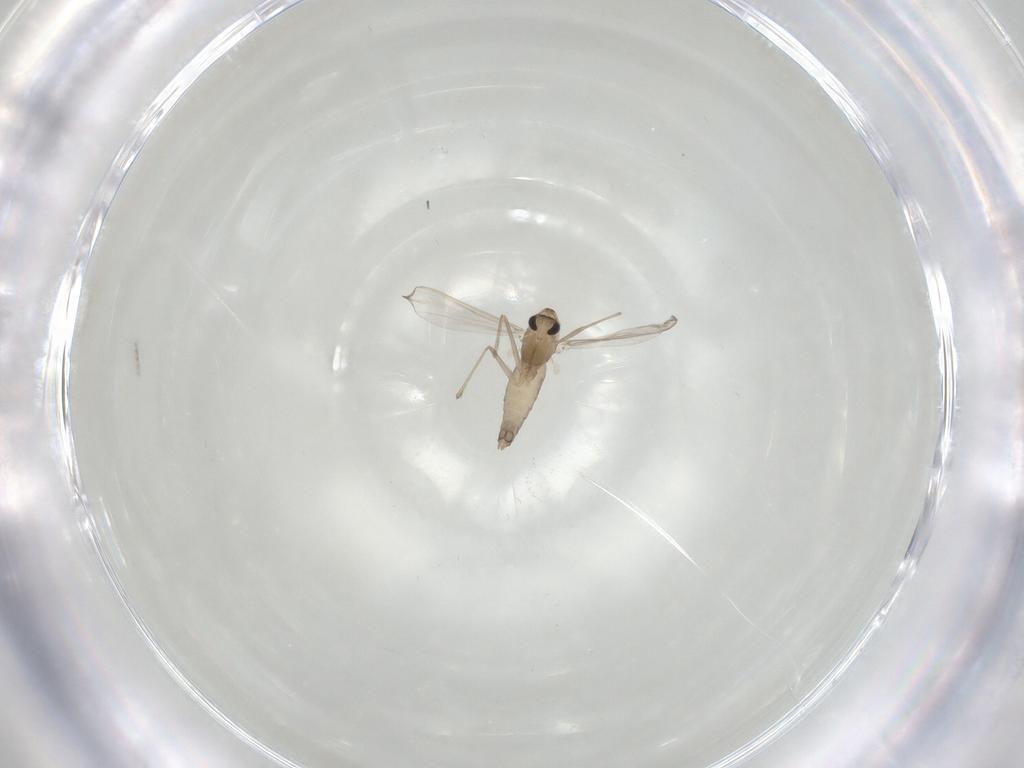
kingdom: Animalia
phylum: Arthropoda
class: Insecta
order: Diptera
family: Chironomidae
